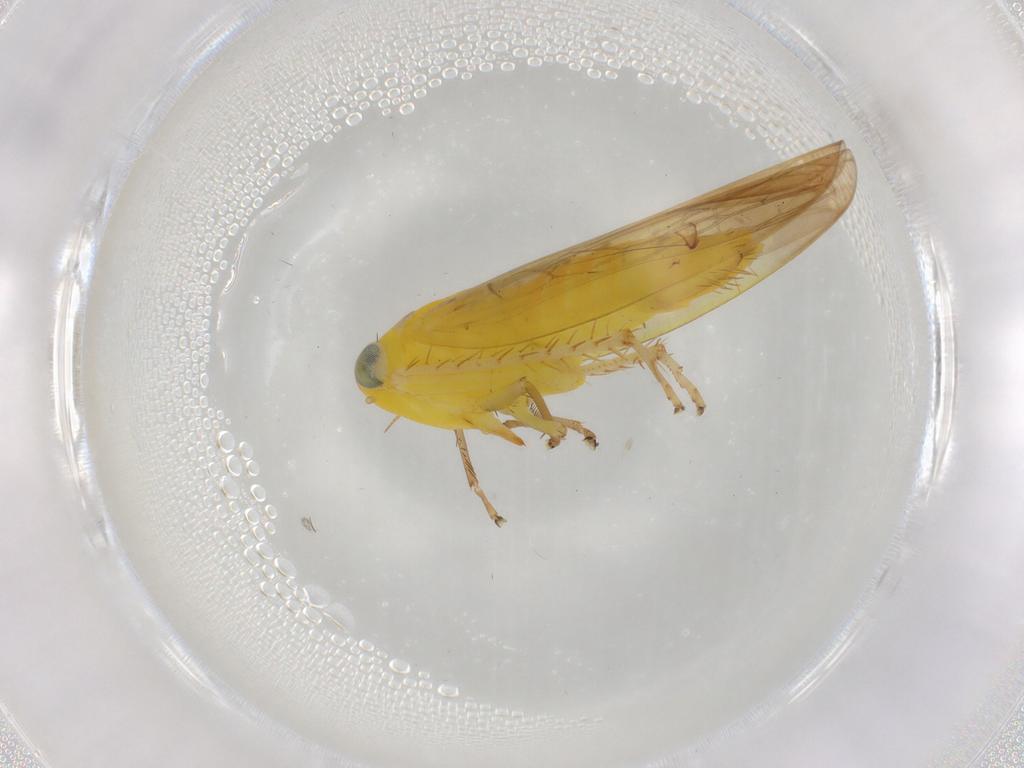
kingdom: Animalia
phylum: Arthropoda
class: Insecta
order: Hemiptera
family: Cicadellidae
